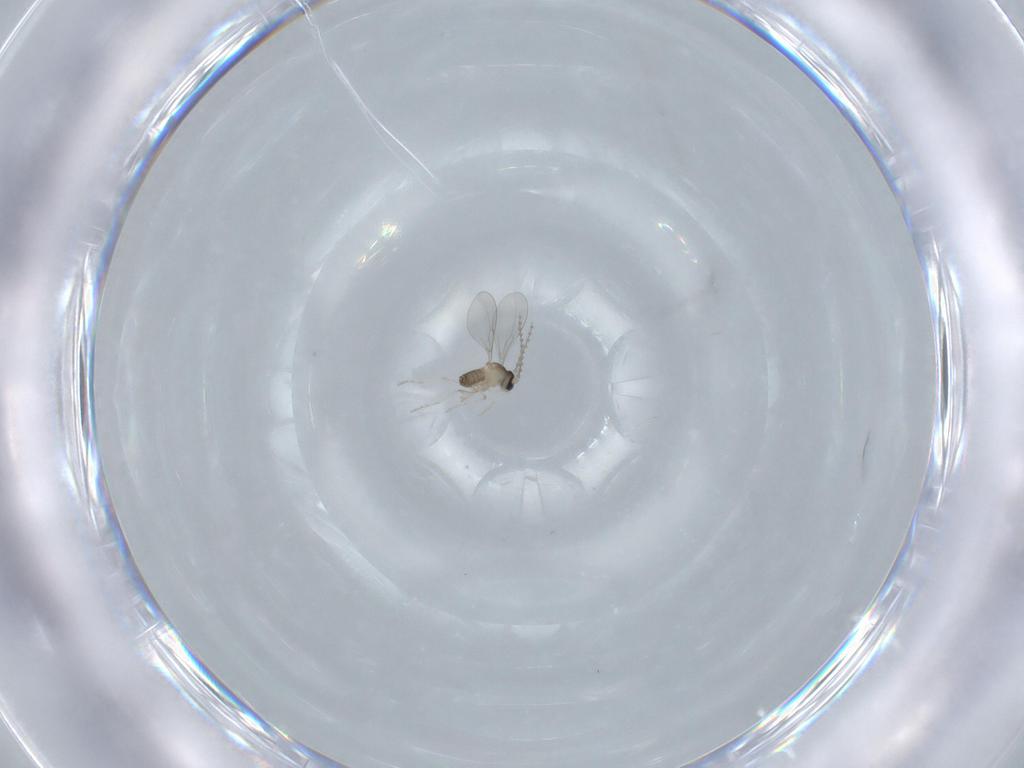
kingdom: Animalia
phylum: Arthropoda
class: Insecta
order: Diptera
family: Cecidomyiidae
